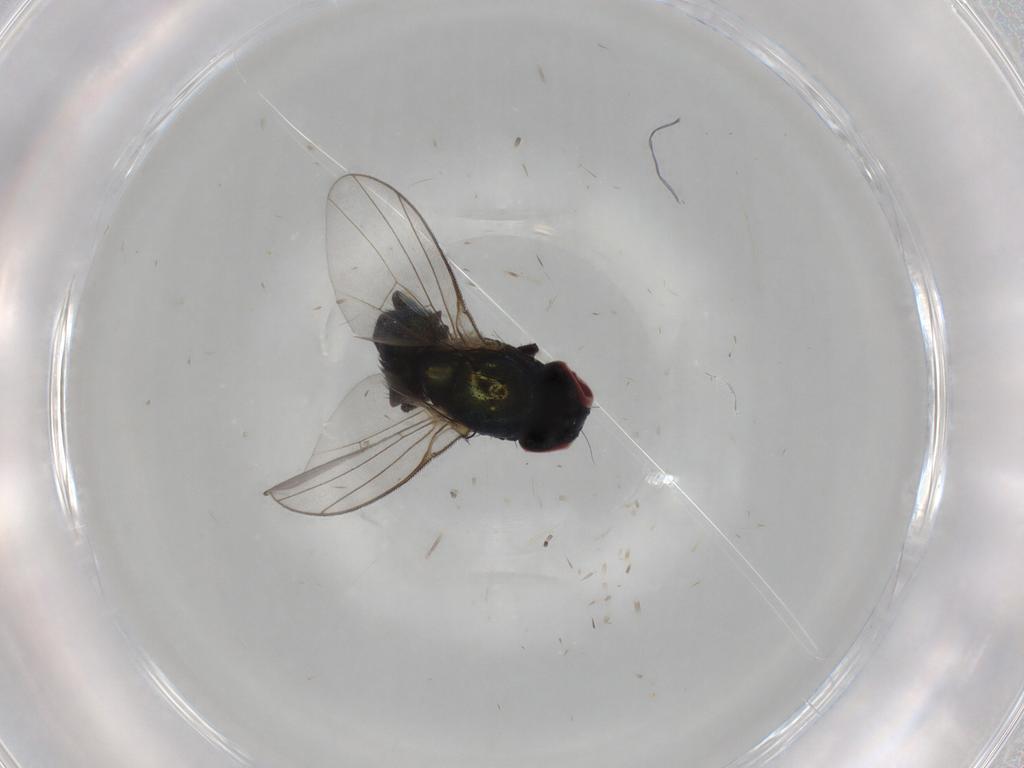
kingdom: Animalia
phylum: Arthropoda
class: Insecta
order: Diptera
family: Agromyzidae
